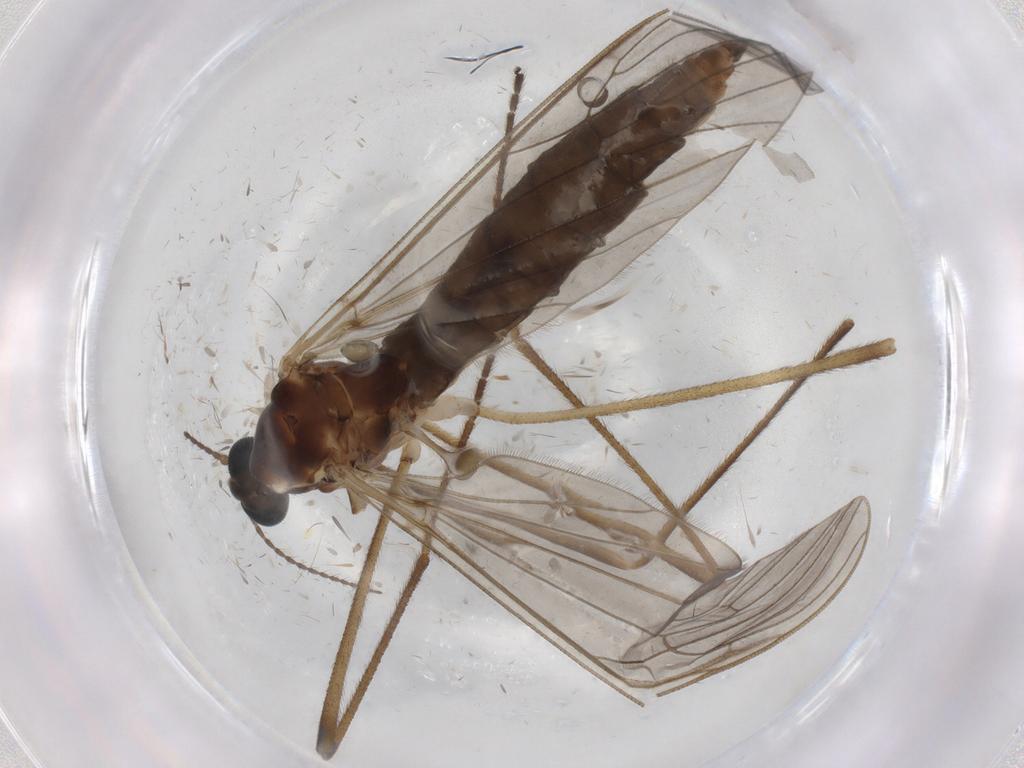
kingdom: Animalia
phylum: Arthropoda
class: Insecta
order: Diptera
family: Limoniidae
